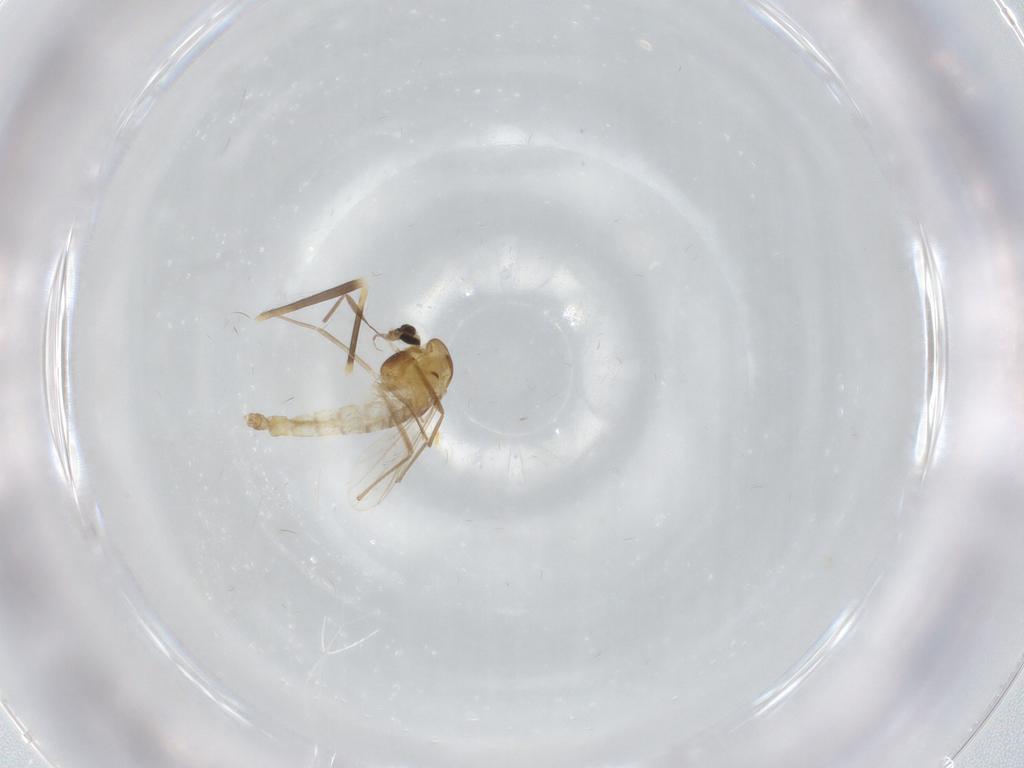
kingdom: Animalia
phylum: Arthropoda
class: Insecta
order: Diptera
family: Chironomidae
